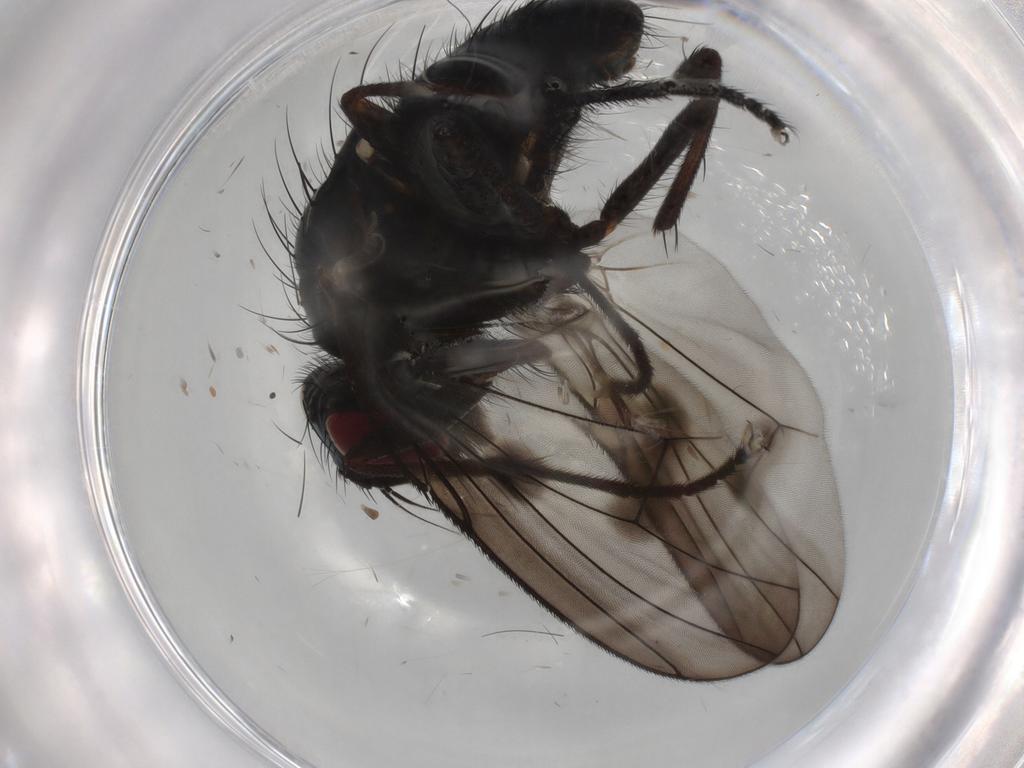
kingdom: Animalia
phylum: Arthropoda
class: Insecta
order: Diptera
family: Muscidae
